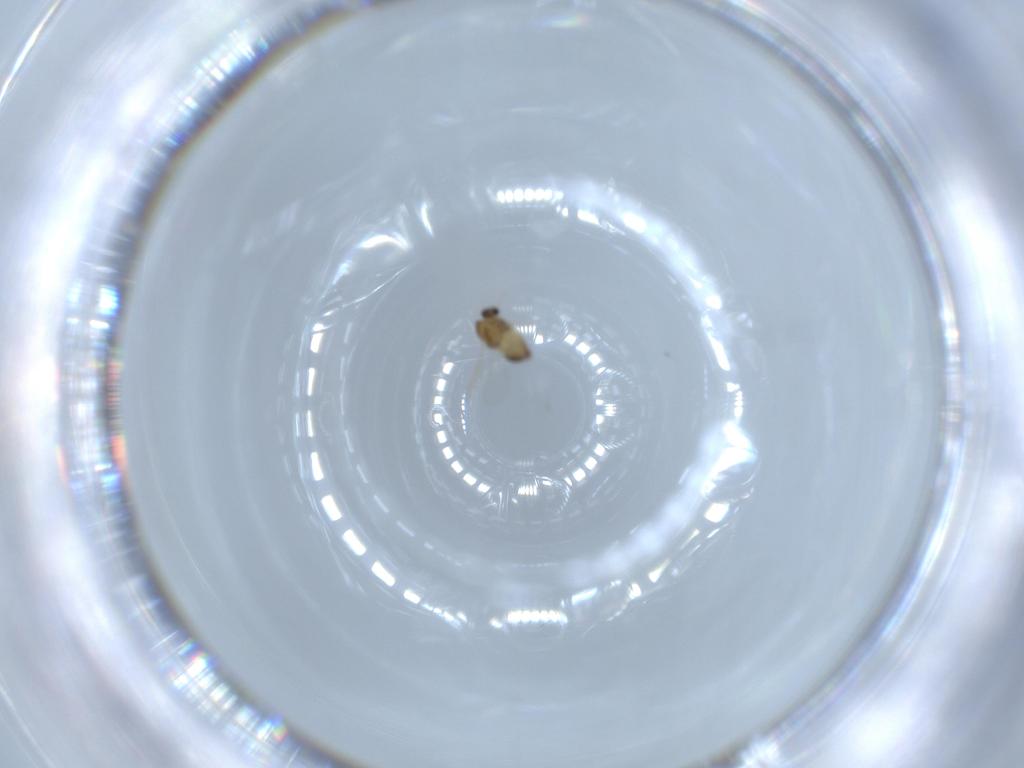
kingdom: Animalia
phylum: Arthropoda
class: Insecta
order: Diptera
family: Chironomidae
